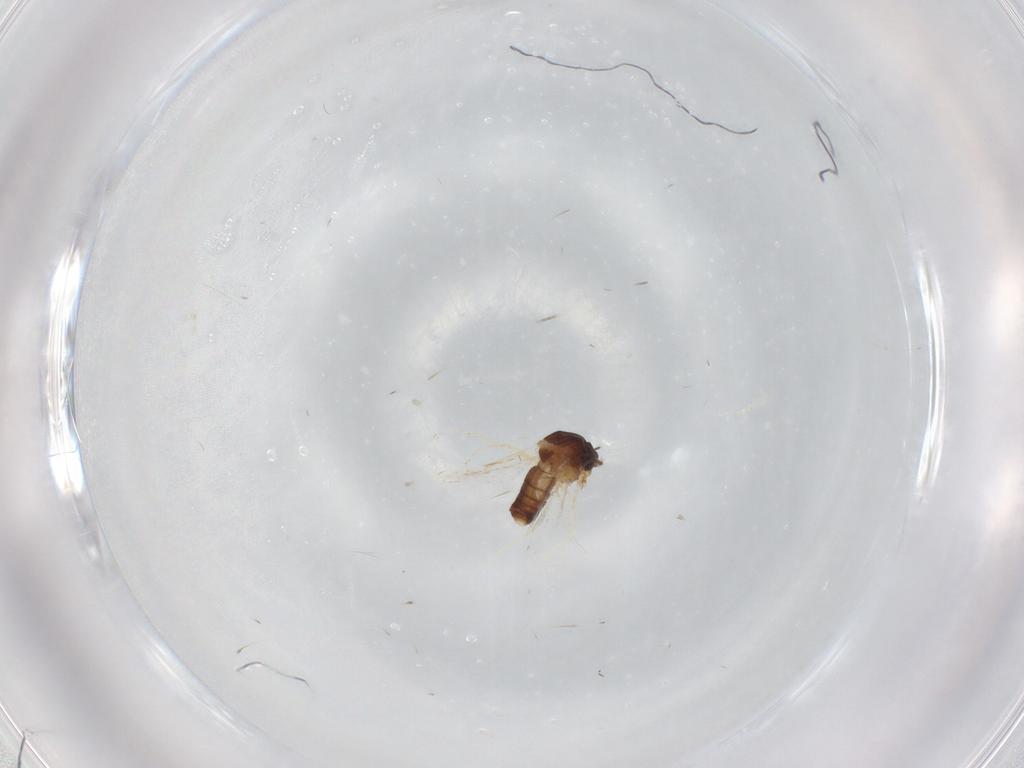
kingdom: Animalia
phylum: Arthropoda
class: Insecta
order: Diptera
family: Ceratopogonidae
